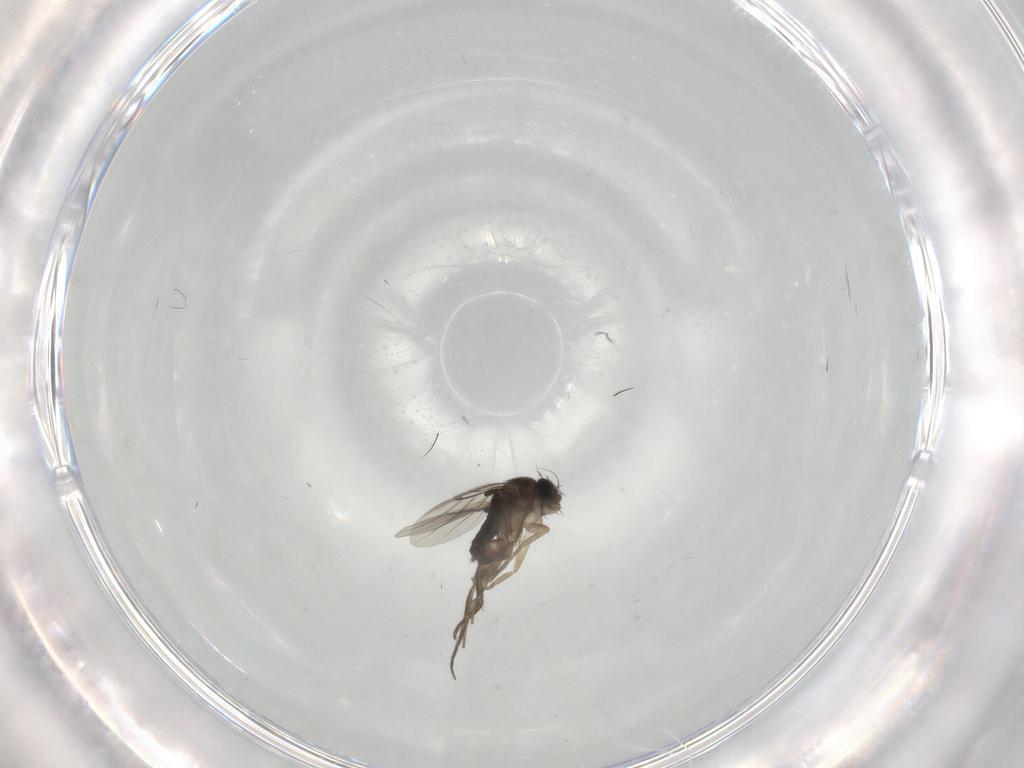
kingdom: Animalia
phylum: Arthropoda
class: Insecta
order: Diptera
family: Phoridae
